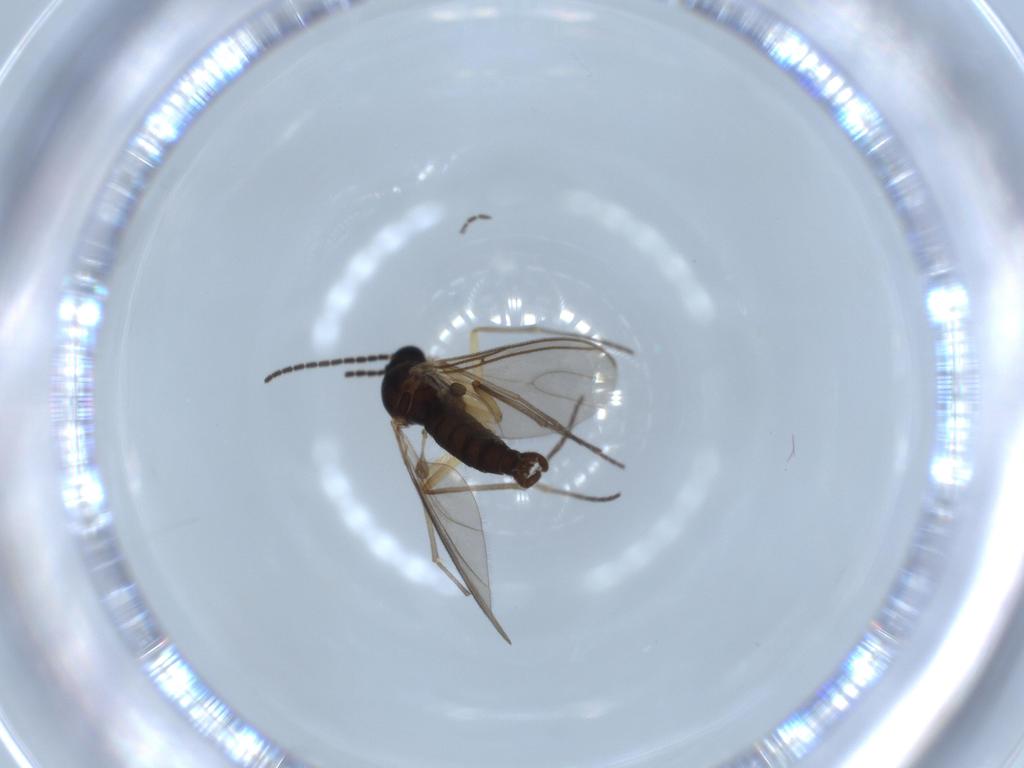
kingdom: Animalia
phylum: Arthropoda
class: Insecta
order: Diptera
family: Sciaridae
